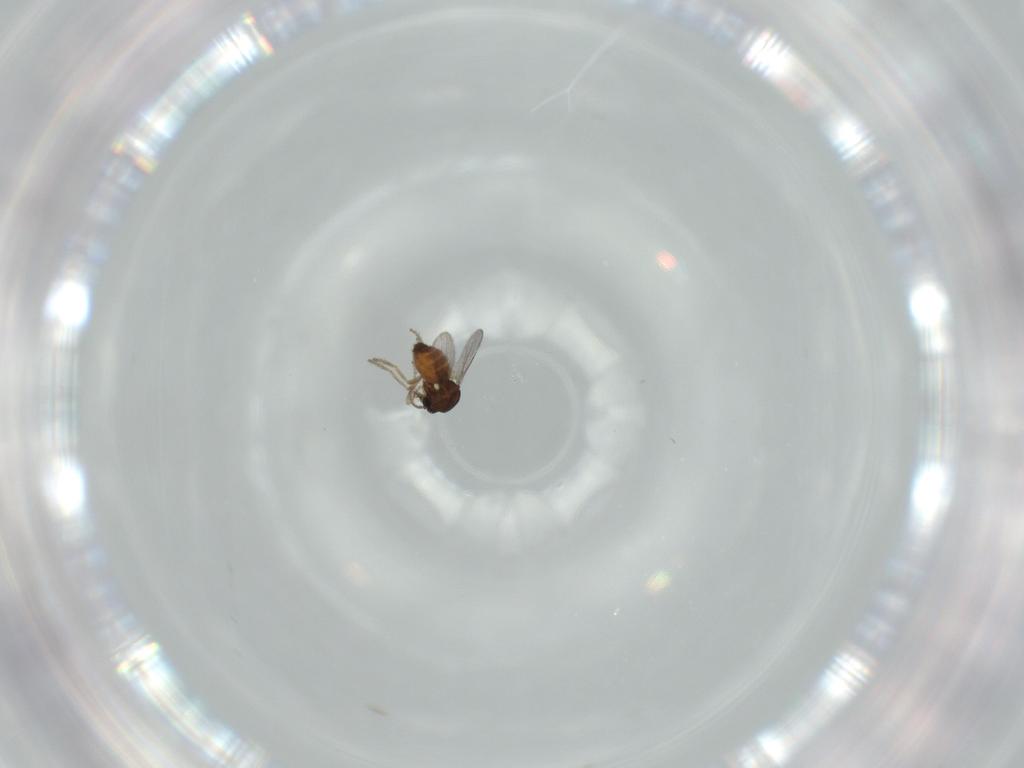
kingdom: Animalia
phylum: Arthropoda
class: Insecta
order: Diptera
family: Ceratopogonidae
